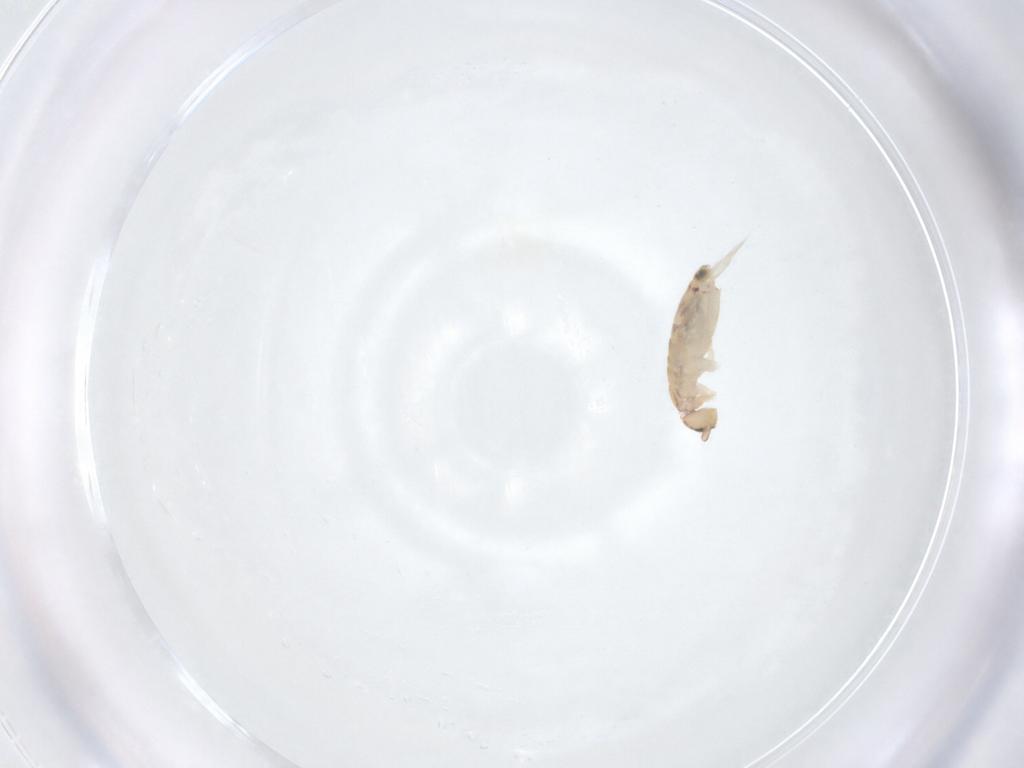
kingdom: Animalia
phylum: Arthropoda
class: Collembola
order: Entomobryomorpha
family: Entomobryidae
